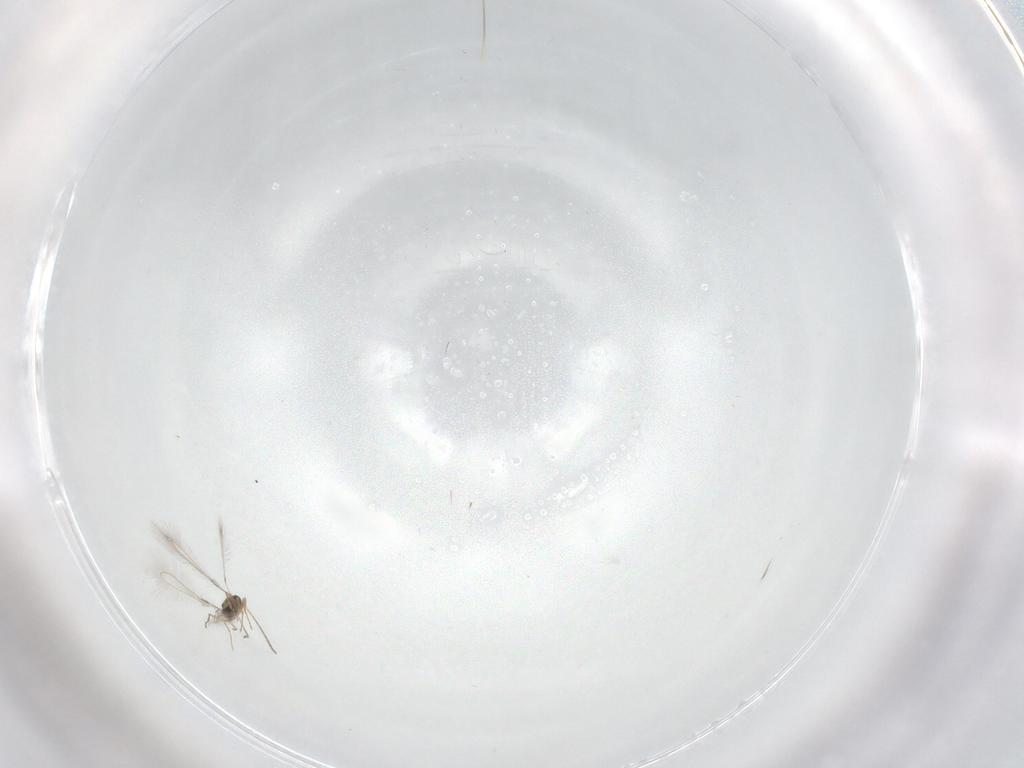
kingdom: Animalia
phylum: Arthropoda
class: Insecta
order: Hymenoptera
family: Mymaridae
